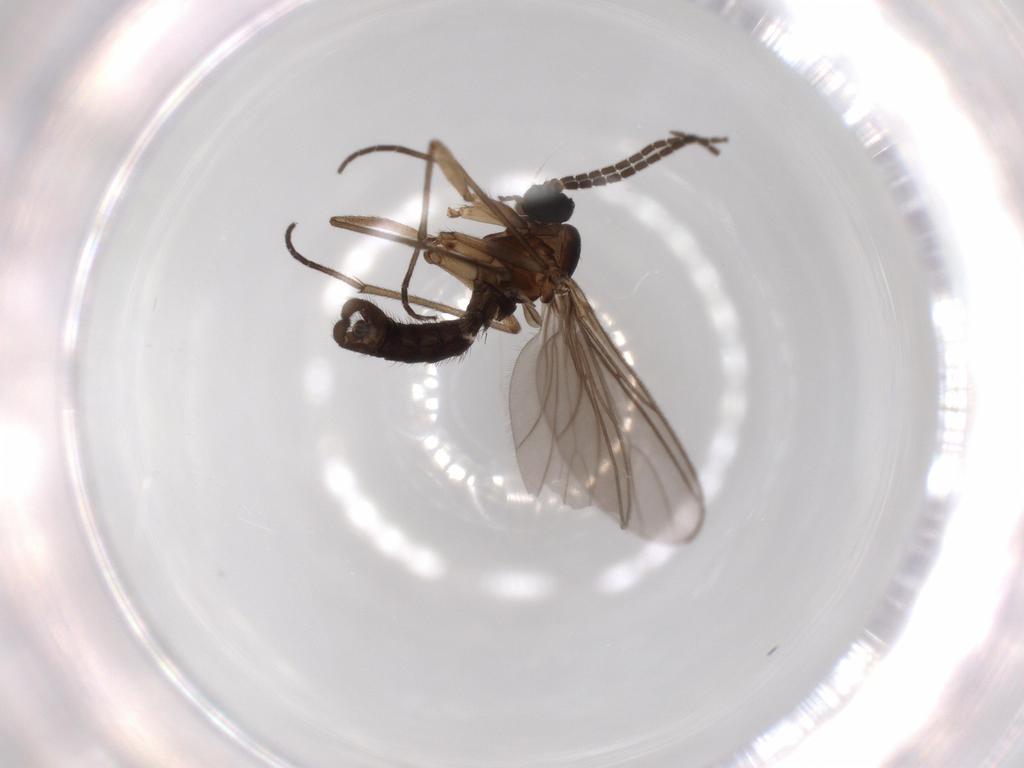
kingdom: Animalia
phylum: Arthropoda
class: Insecta
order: Diptera
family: Sciaridae
